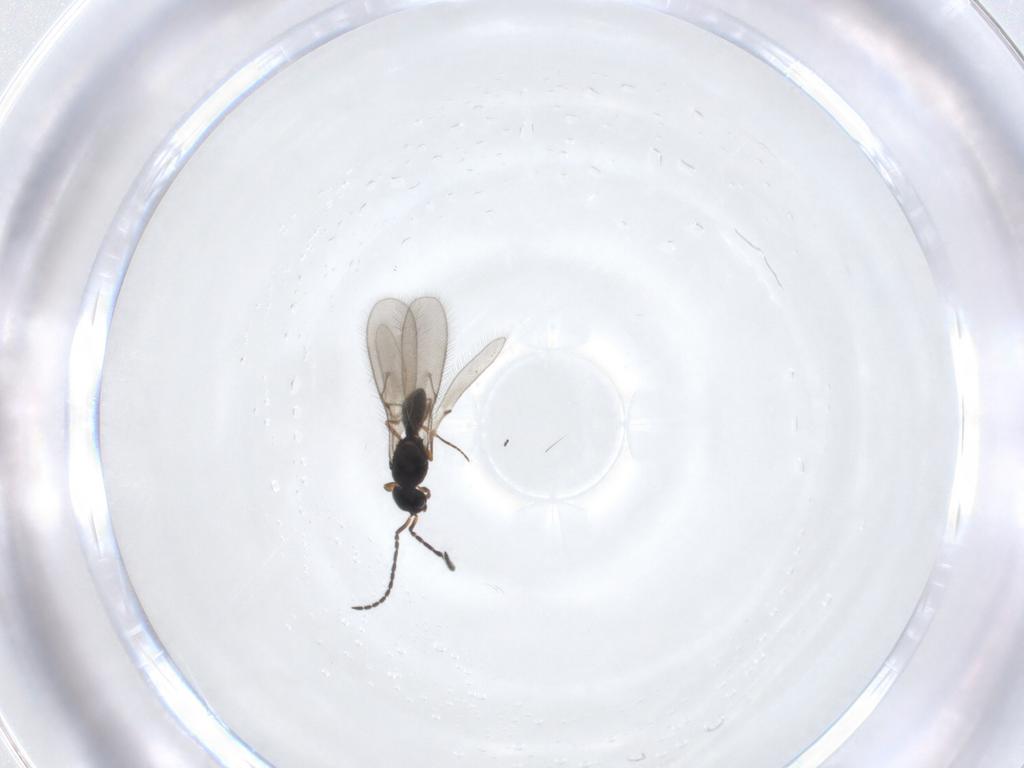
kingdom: Animalia
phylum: Arthropoda
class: Insecta
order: Hymenoptera
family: Scelionidae
